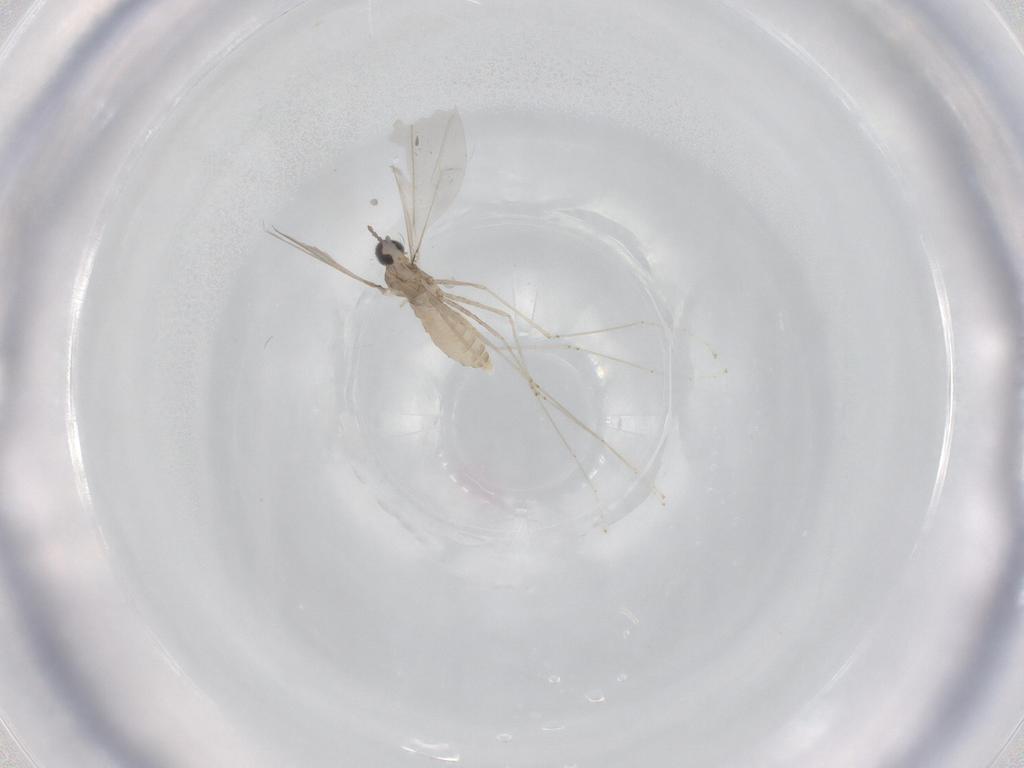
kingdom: Animalia
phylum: Arthropoda
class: Insecta
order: Diptera
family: Cecidomyiidae
